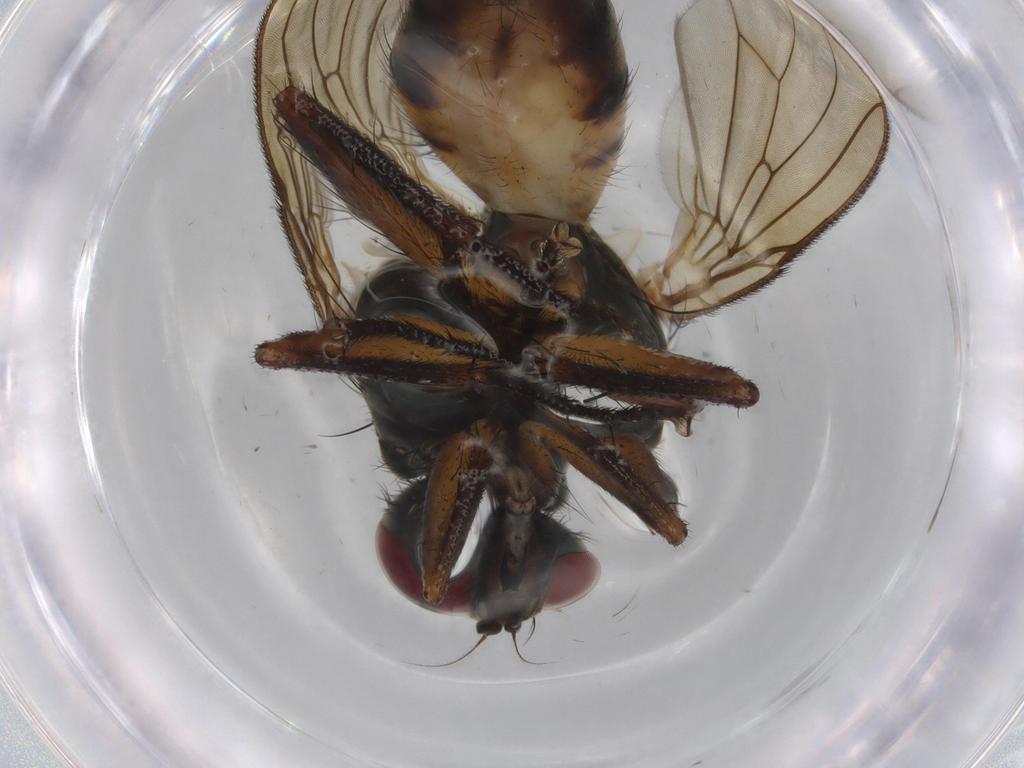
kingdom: Animalia
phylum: Arthropoda
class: Insecta
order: Diptera
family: Muscidae
